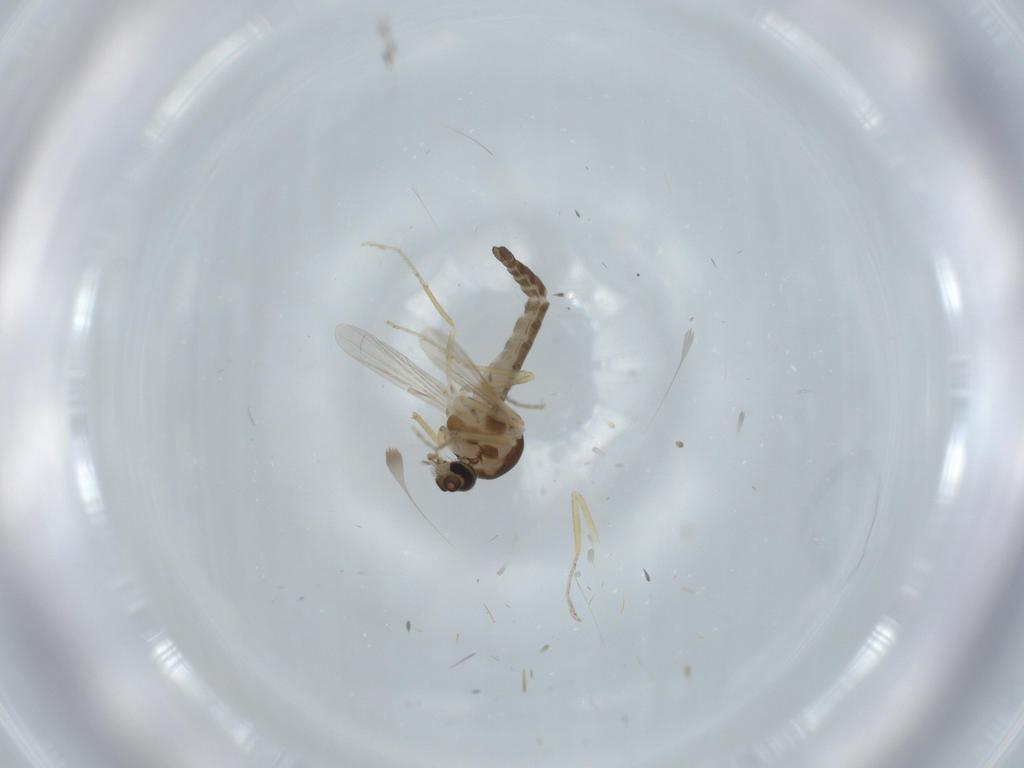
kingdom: Animalia
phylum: Arthropoda
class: Insecta
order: Diptera
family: Ceratopogonidae
